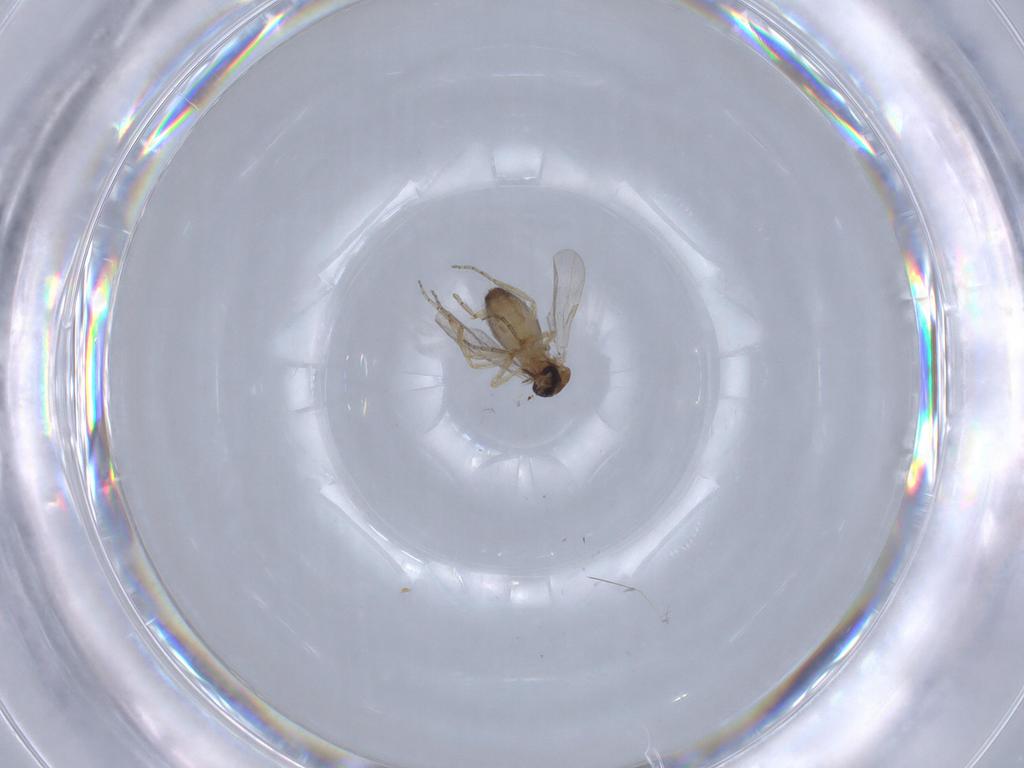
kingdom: Animalia
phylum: Arthropoda
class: Insecta
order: Diptera
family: Ceratopogonidae
